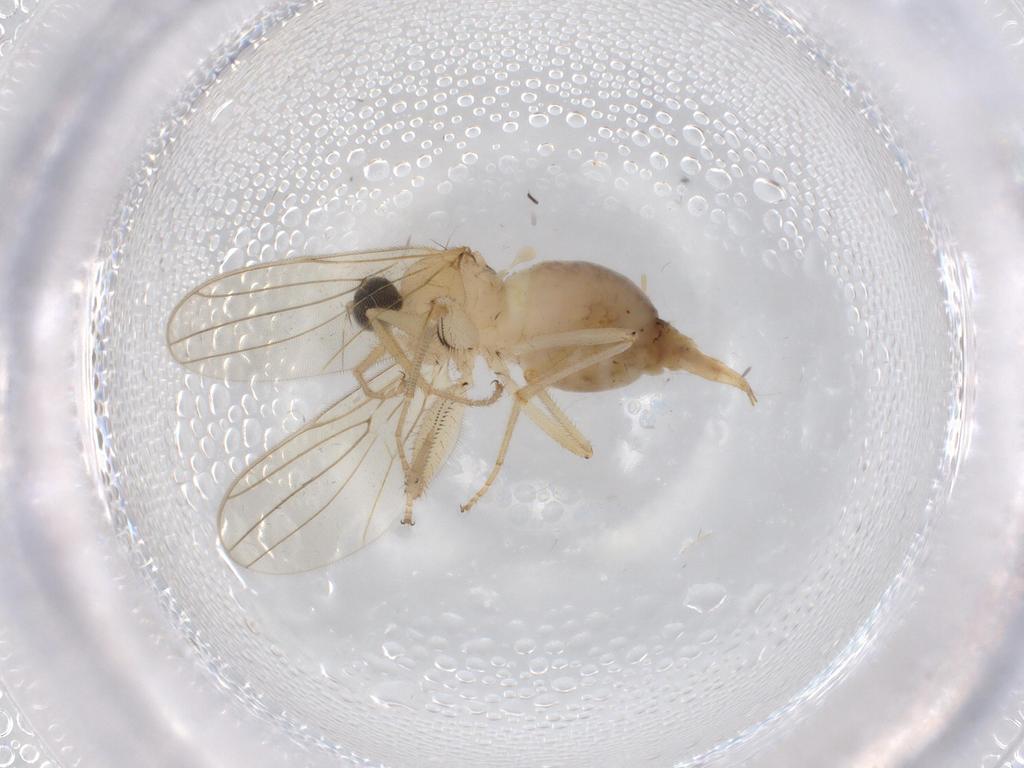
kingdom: Animalia
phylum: Arthropoda
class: Insecta
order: Diptera
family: Hybotidae
